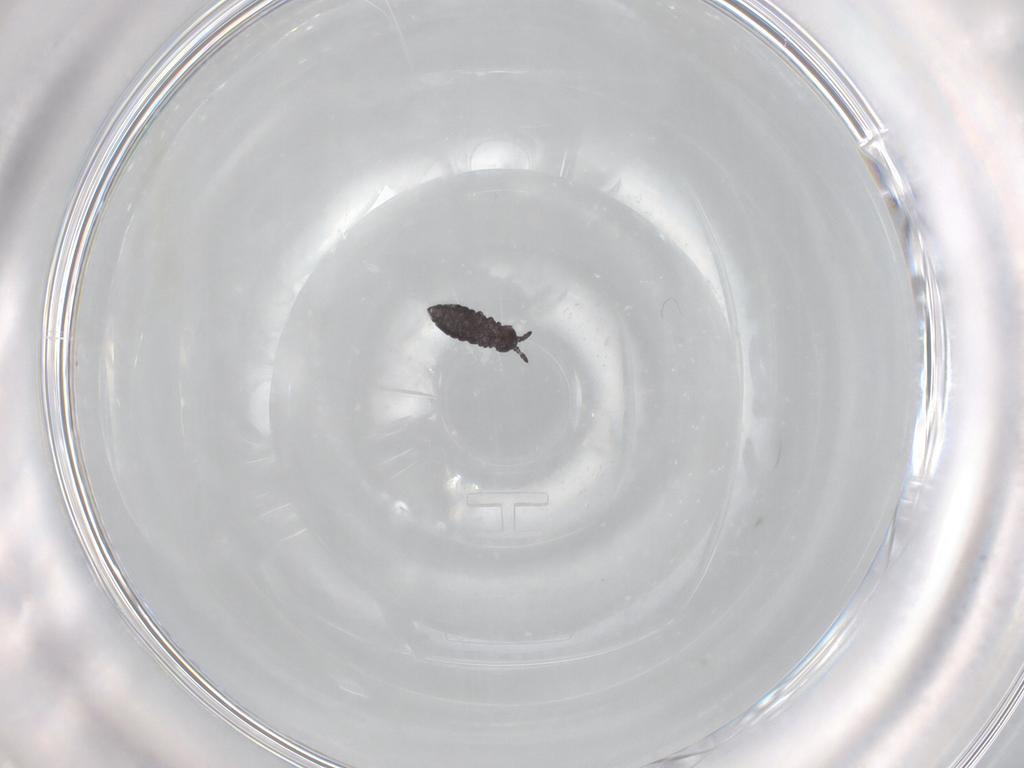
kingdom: Animalia
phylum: Arthropoda
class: Collembola
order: Poduromorpha
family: Hypogastruridae
